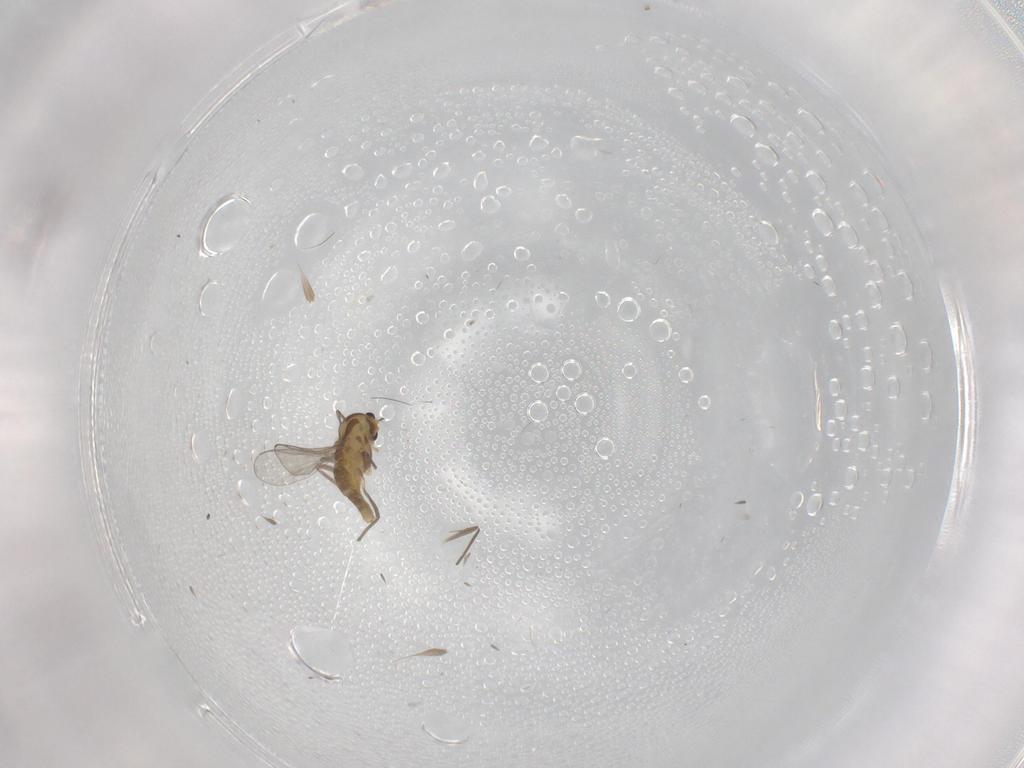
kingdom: Animalia
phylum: Arthropoda
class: Insecta
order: Diptera
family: Chironomidae
